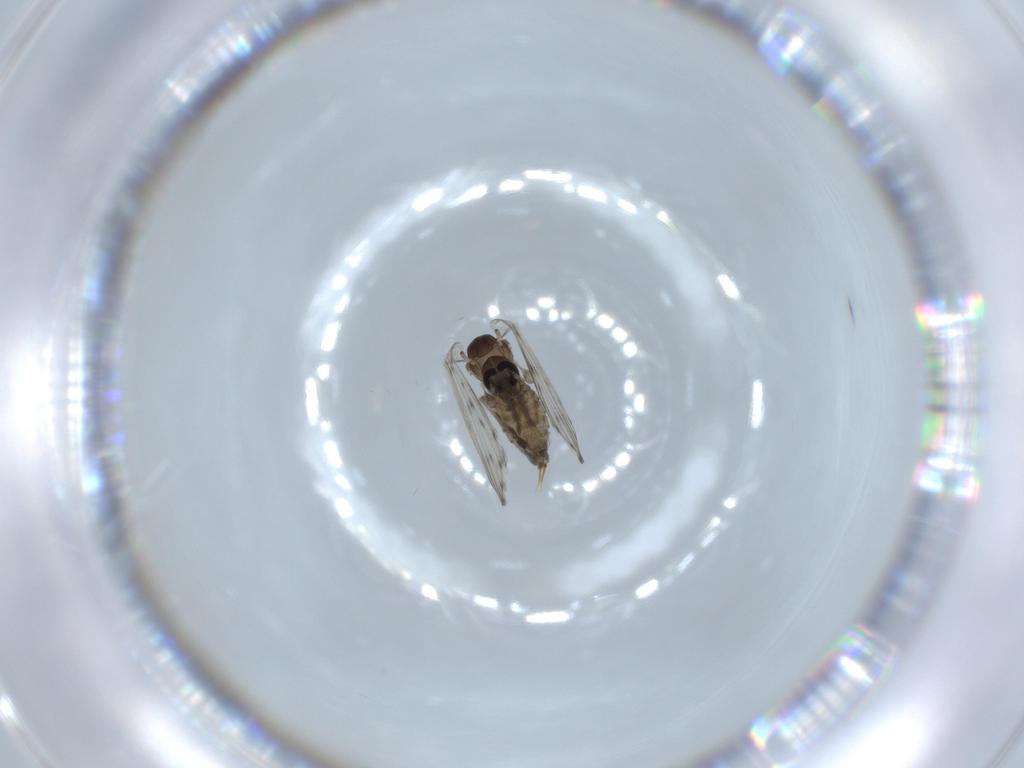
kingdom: Animalia
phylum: Arthropoda
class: Insecta
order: Diptera
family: Psychodidae
